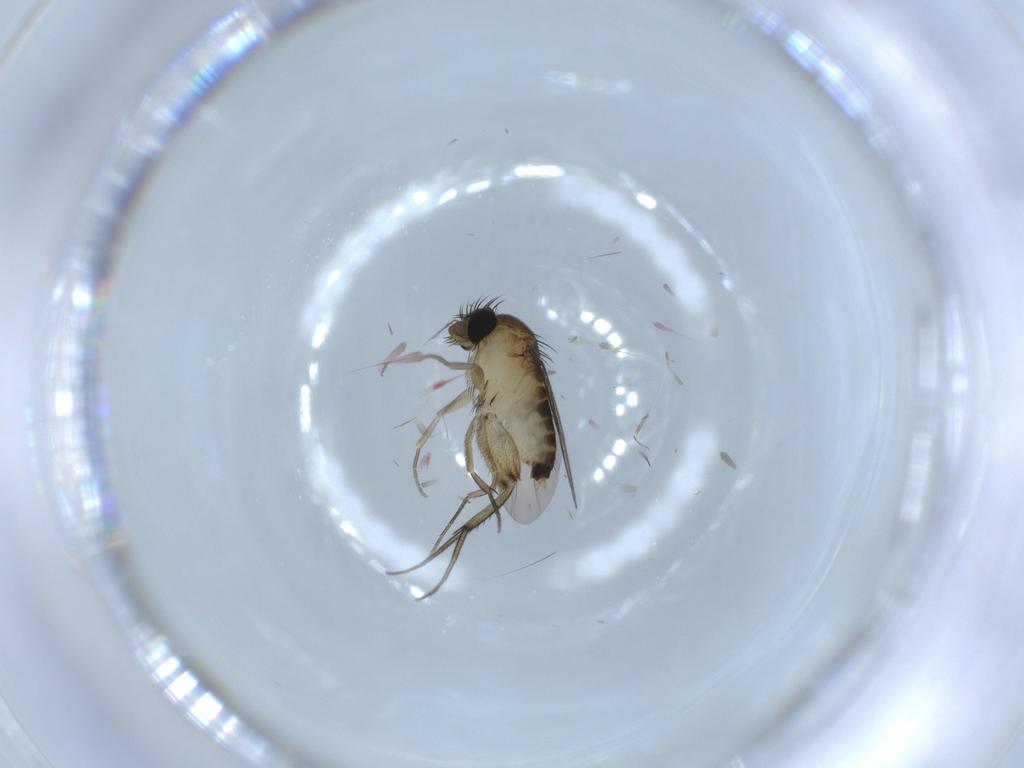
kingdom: Animalia
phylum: Arthropoda
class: Insecta
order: Diptera
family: Phoridae
